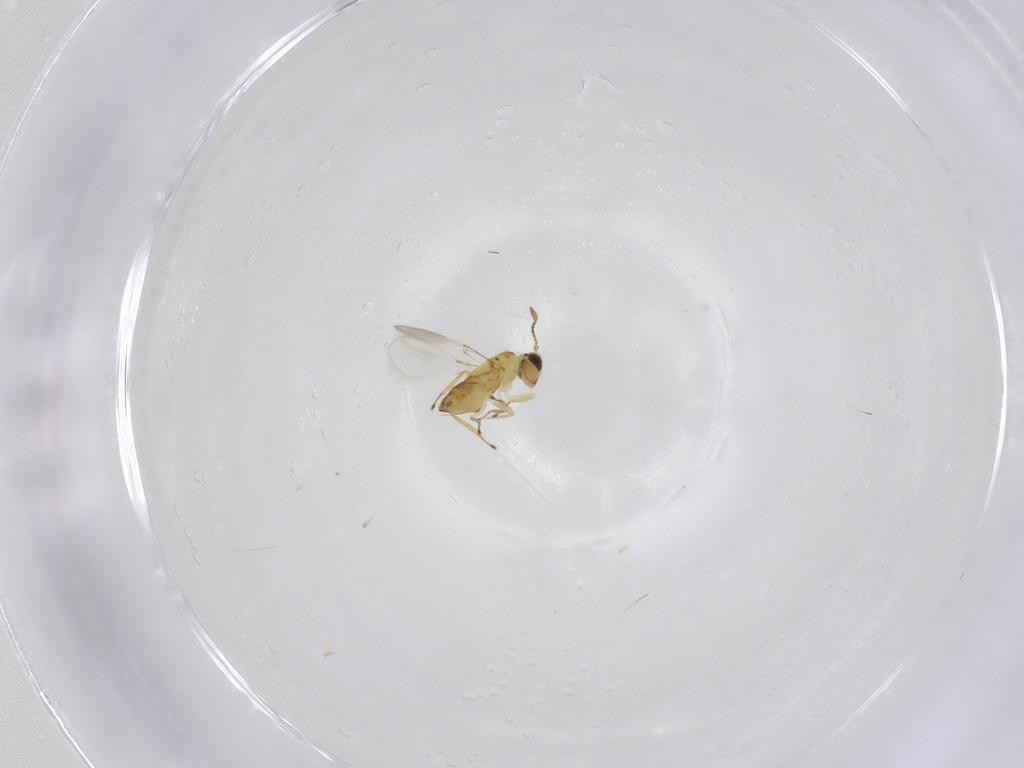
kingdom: Animalia
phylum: Arthropoda
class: Insecta
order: Hymenoptera
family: Mymaridae
